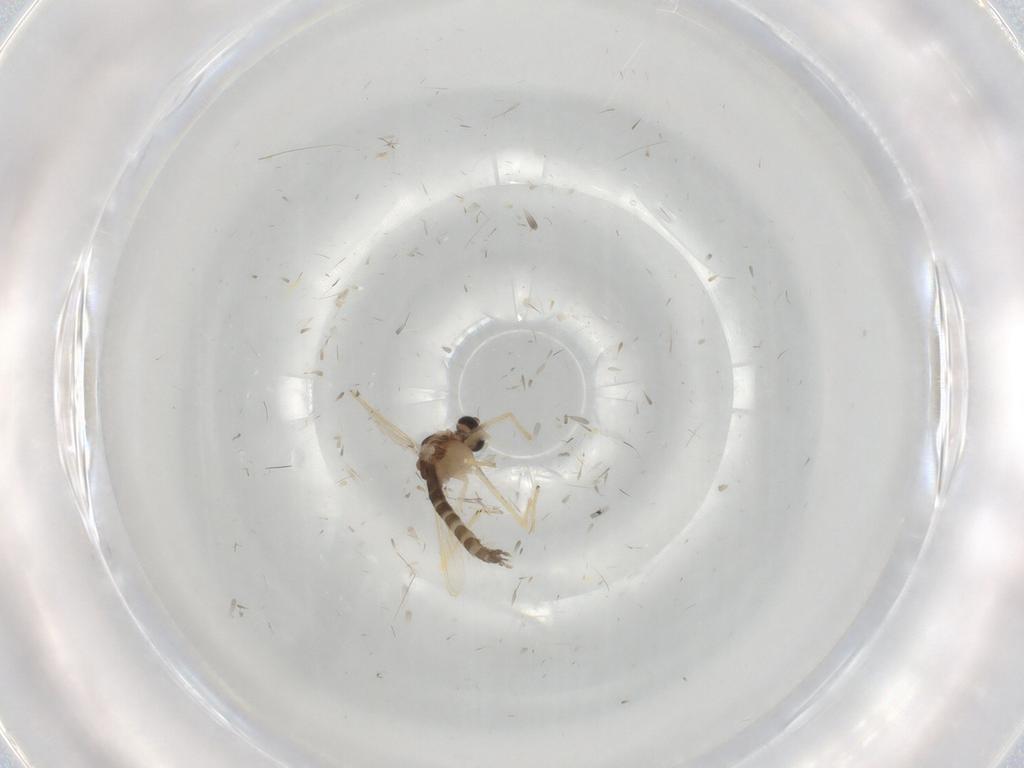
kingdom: Animalia
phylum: Arthropoda
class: Insecta
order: Diptera
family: Chironomidae
